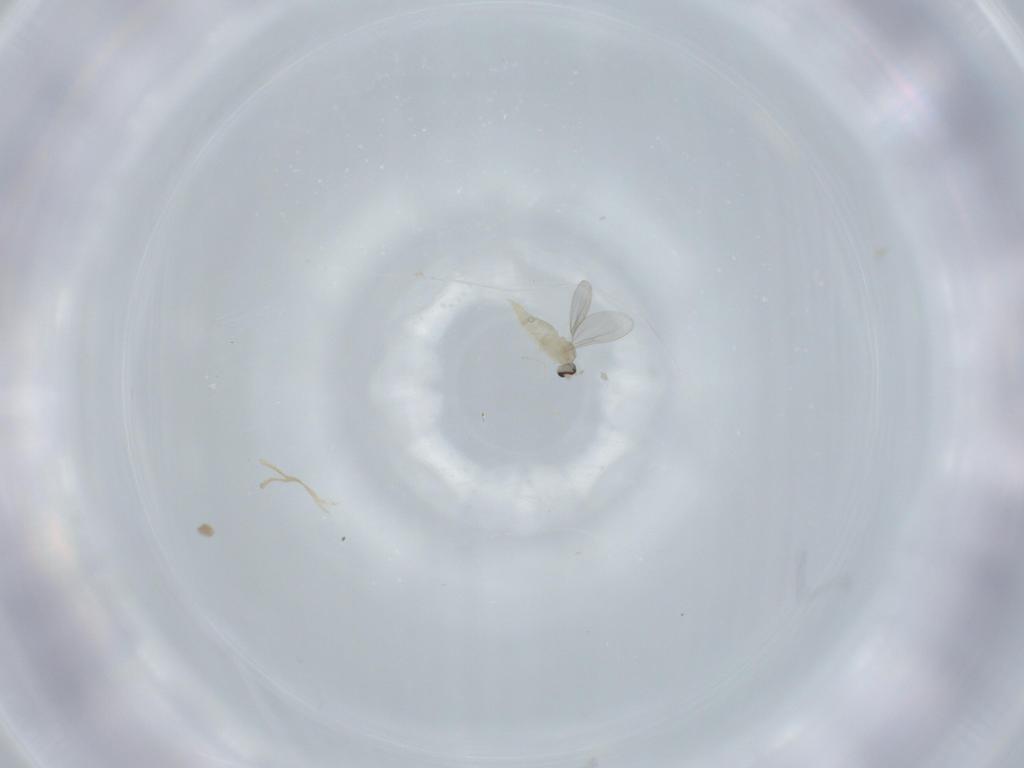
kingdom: Animalia
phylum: Arthropoda
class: Insecta
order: Diptera
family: Cecidomyiidae
